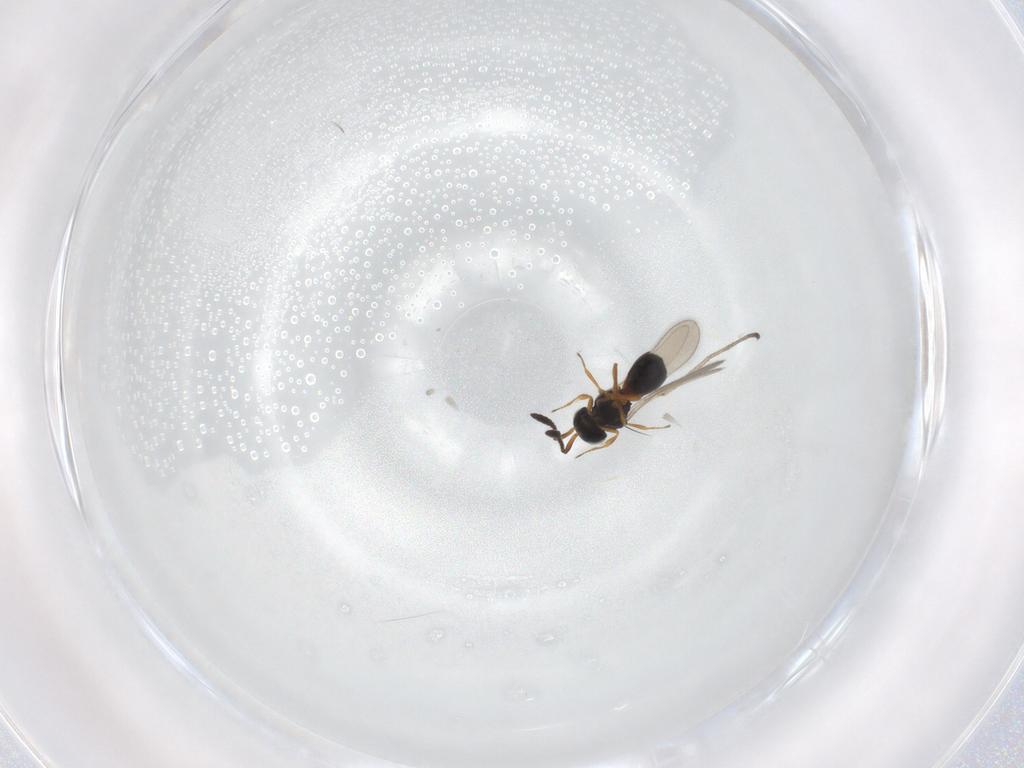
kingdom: Animalia
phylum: Arthropoda
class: Insecta
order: Hymenoptera
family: Scelionidae
